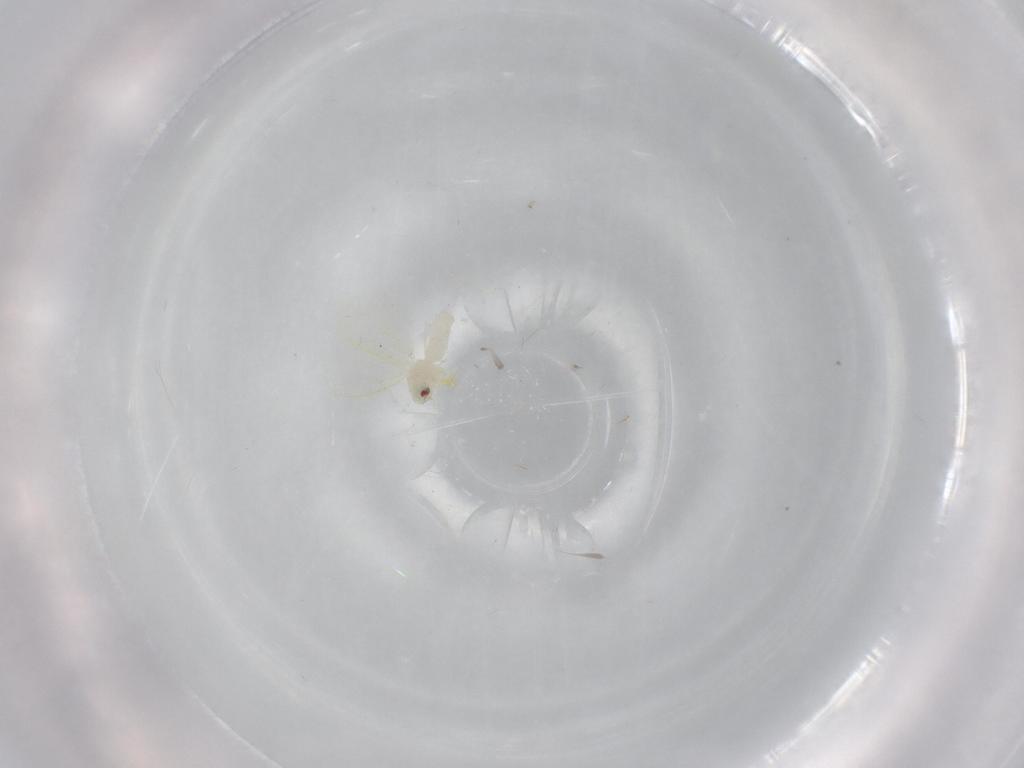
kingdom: Animalia
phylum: Arthropoda
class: Insecta
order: Hemiptera
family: Aleyrodidae
